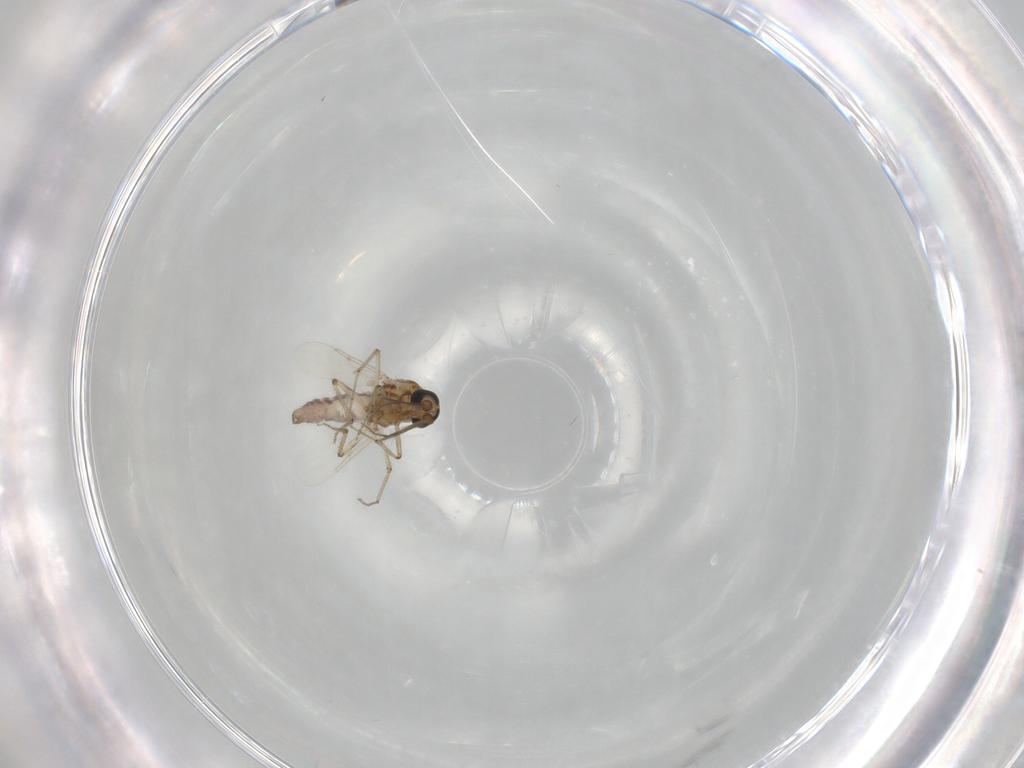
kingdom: Animalia
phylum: Arthropoda
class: Insecta
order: Diptera
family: Ceratopogonidae
